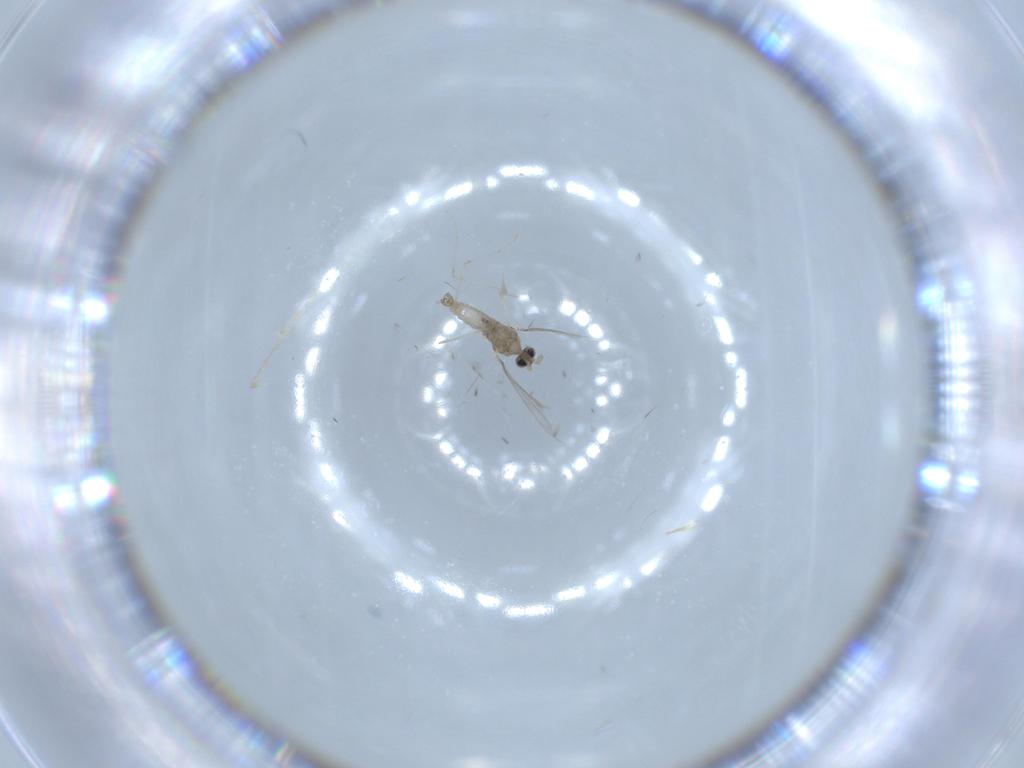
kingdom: Animalia
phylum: Arthropoda
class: Insecta
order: Diptera
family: Cecidomyiidae
